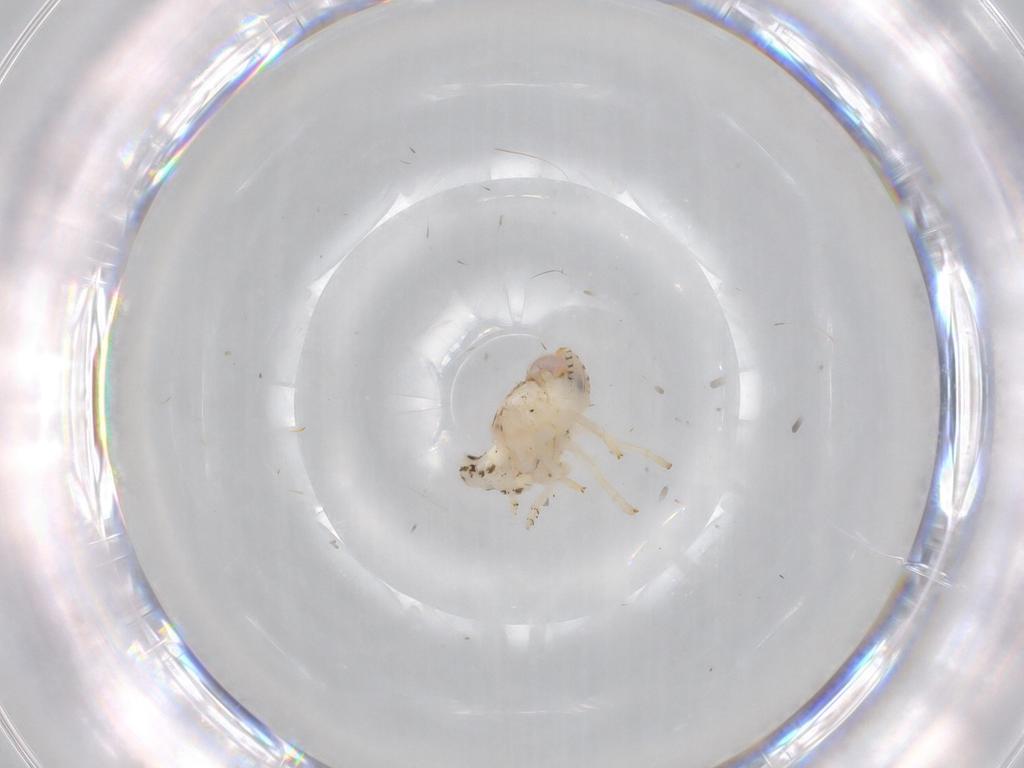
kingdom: Animalia
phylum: Arthropoda
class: Insecta
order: Hemiptera
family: Nogodinidae
